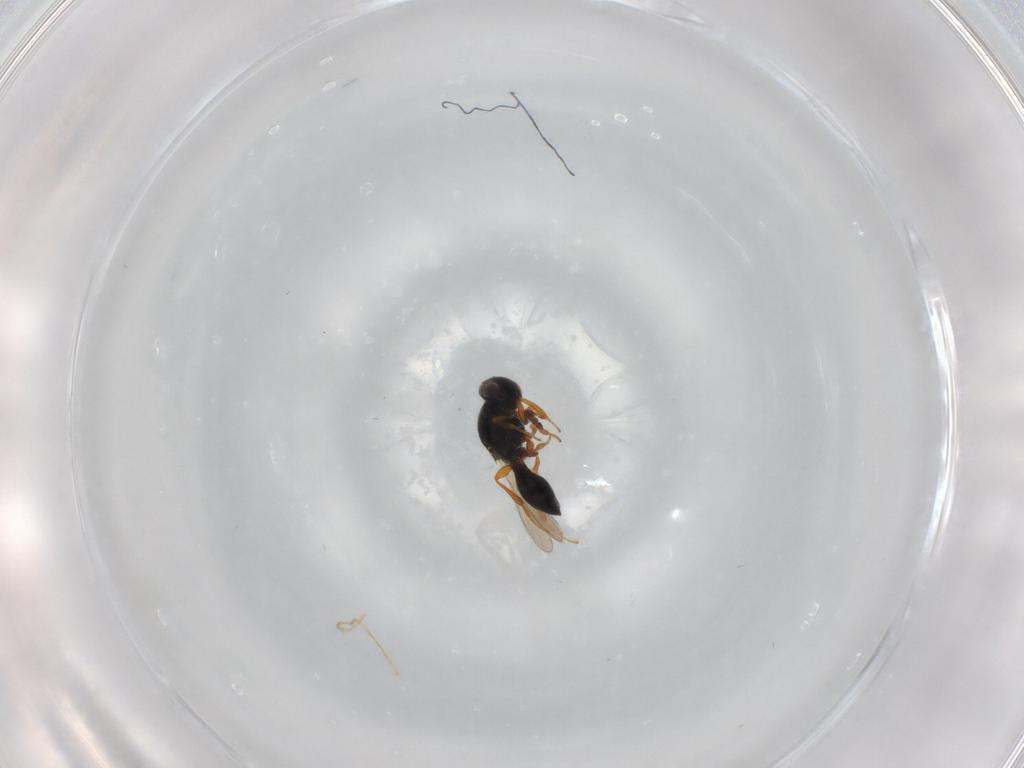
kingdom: Animalia
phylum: Arthropoda
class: Insecta
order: Hymenoptera
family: Platygastridae
